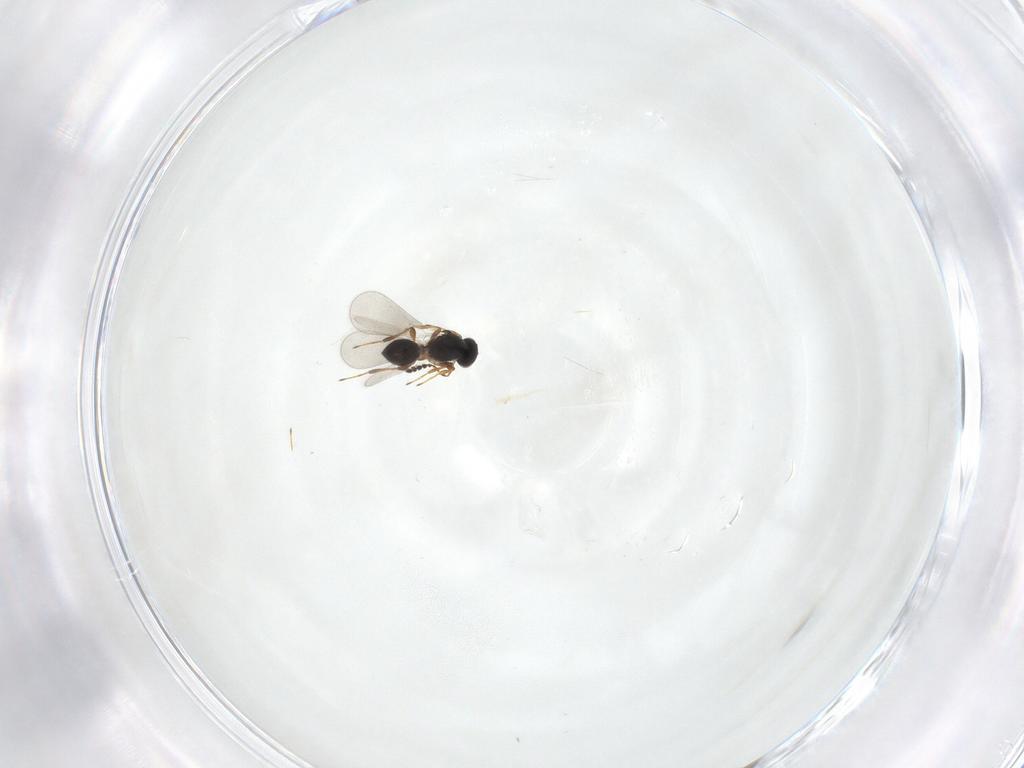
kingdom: Animalia
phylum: Arthropoda
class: Insecta
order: Hymenoptera
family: Platygastridae
